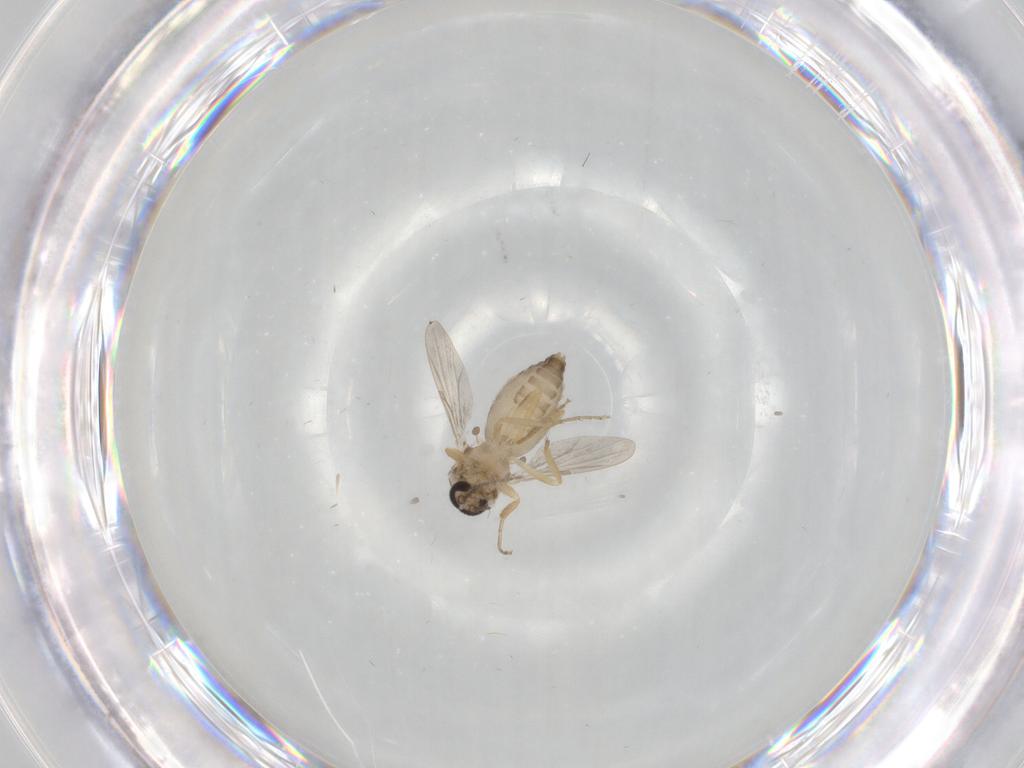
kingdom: Animalia
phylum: Arthropoda
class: Insecta
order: Diptera
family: Ceratopogonidae
